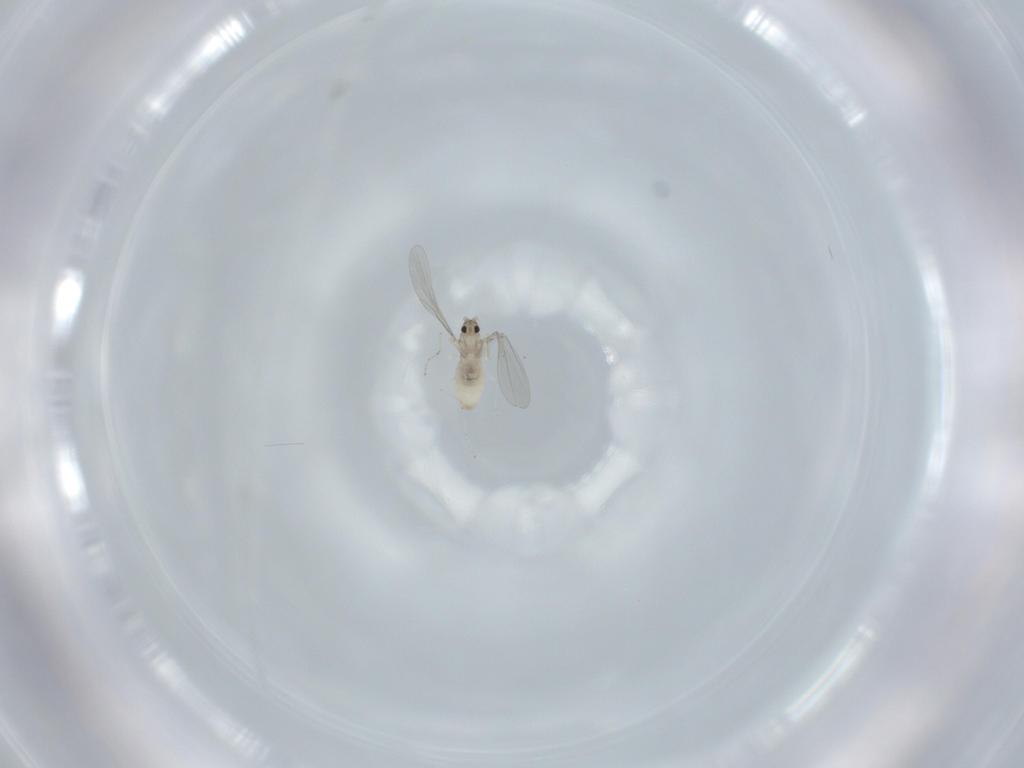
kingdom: Animalia
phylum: Arthropoda
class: Insecta
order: Diptera
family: Cecidomyiidae
